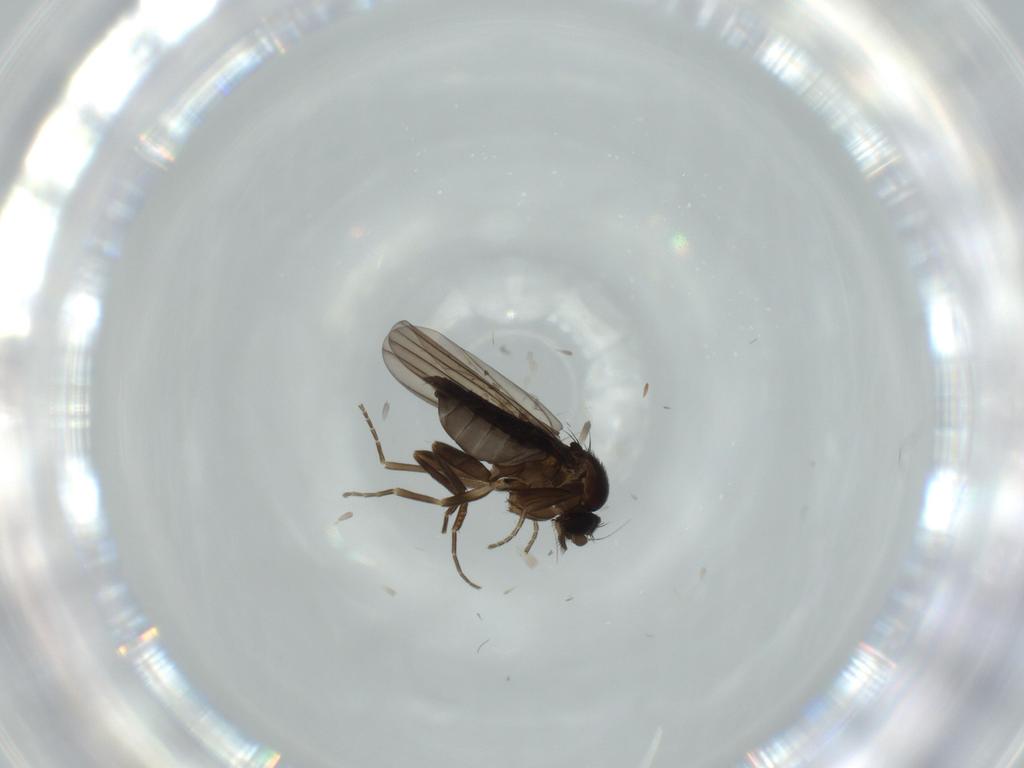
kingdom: Animalia
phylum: Arthropoda
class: Insecta
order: Diptera
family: Phoridae
